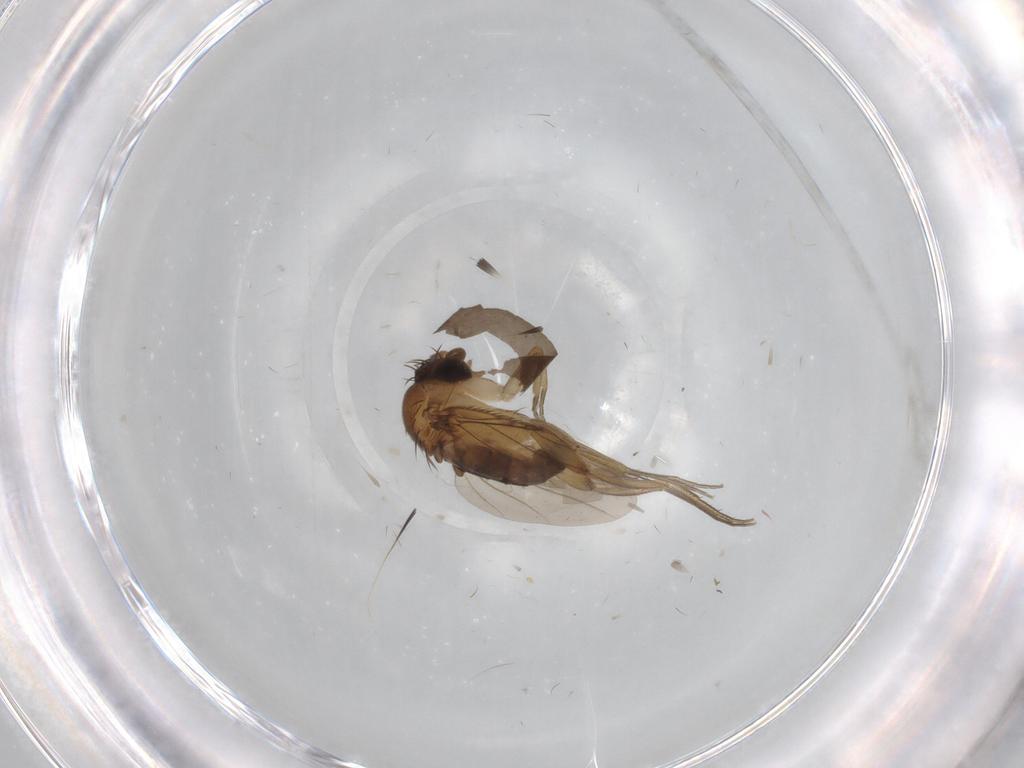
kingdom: Animalia
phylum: Arthropoda
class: Insecta
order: Diptera
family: Phoridae
